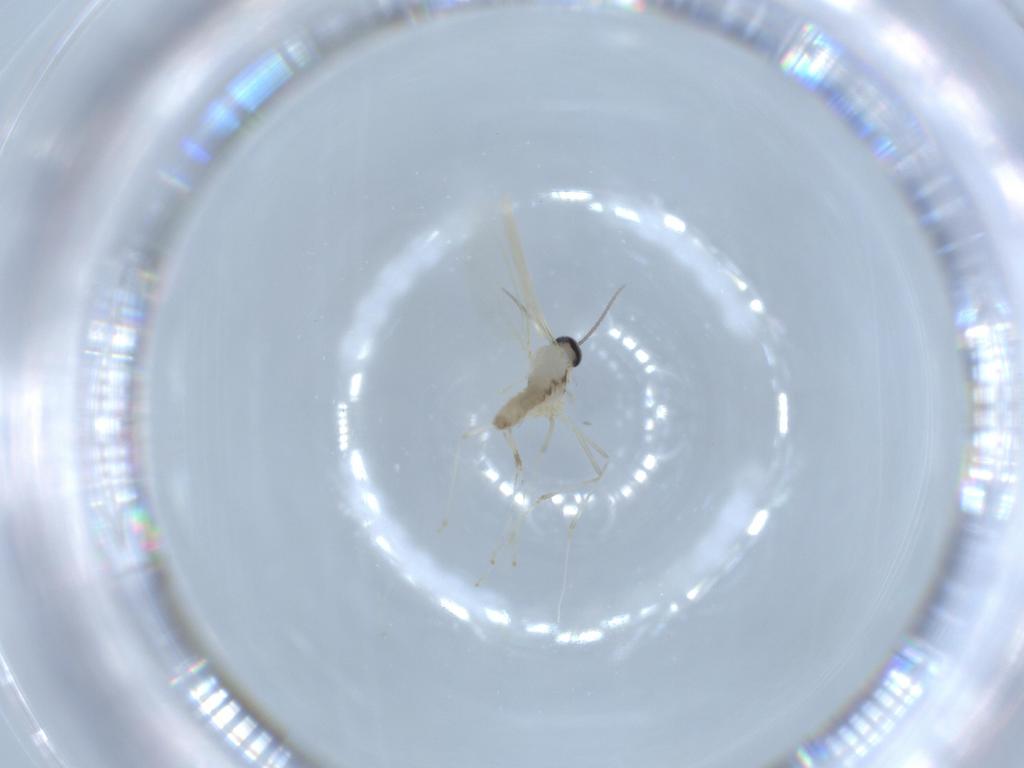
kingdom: Animalia
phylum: Arthropoda
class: Insecta
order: Diptera
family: Cecidomyiidae
